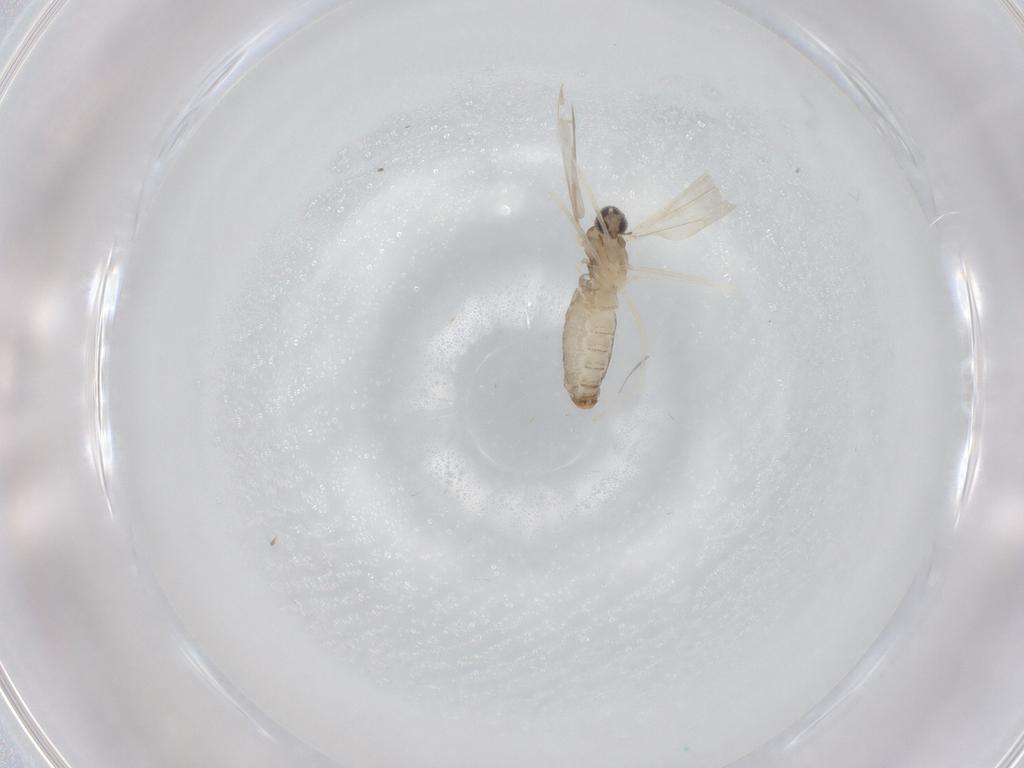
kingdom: Animalia
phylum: Arthropoda
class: Insecta
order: Diptera
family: Cecidomyiidae
